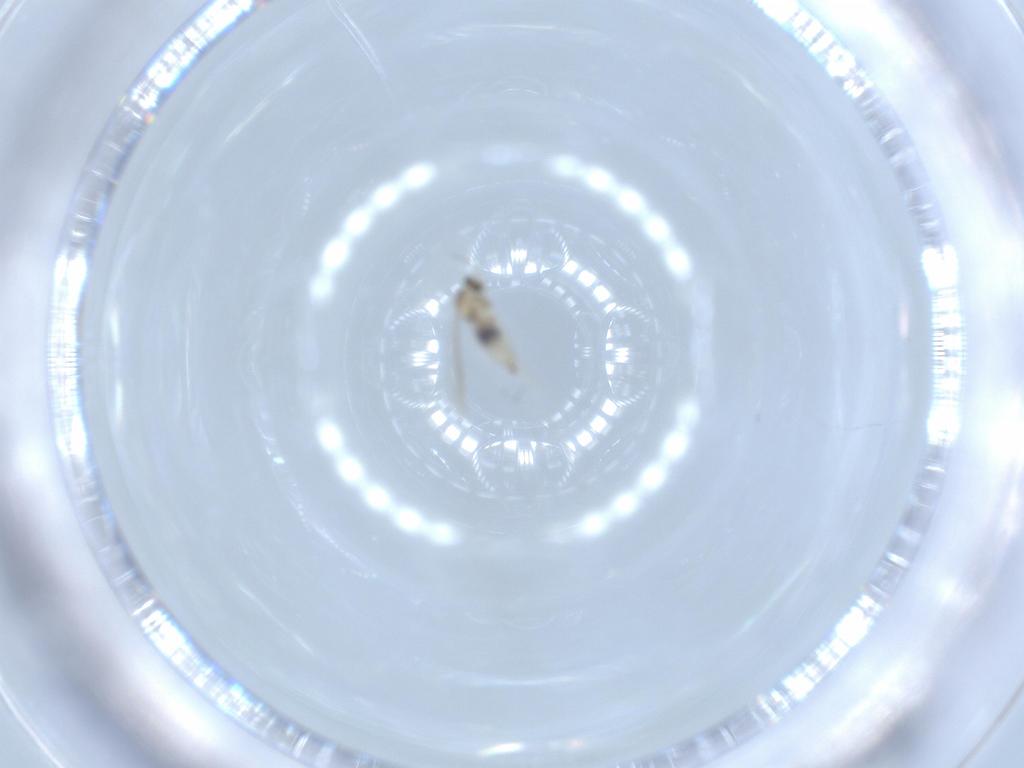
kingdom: Animalia
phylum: Arthropoda
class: Insecta
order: Diptera
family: Cecidomyiidae
